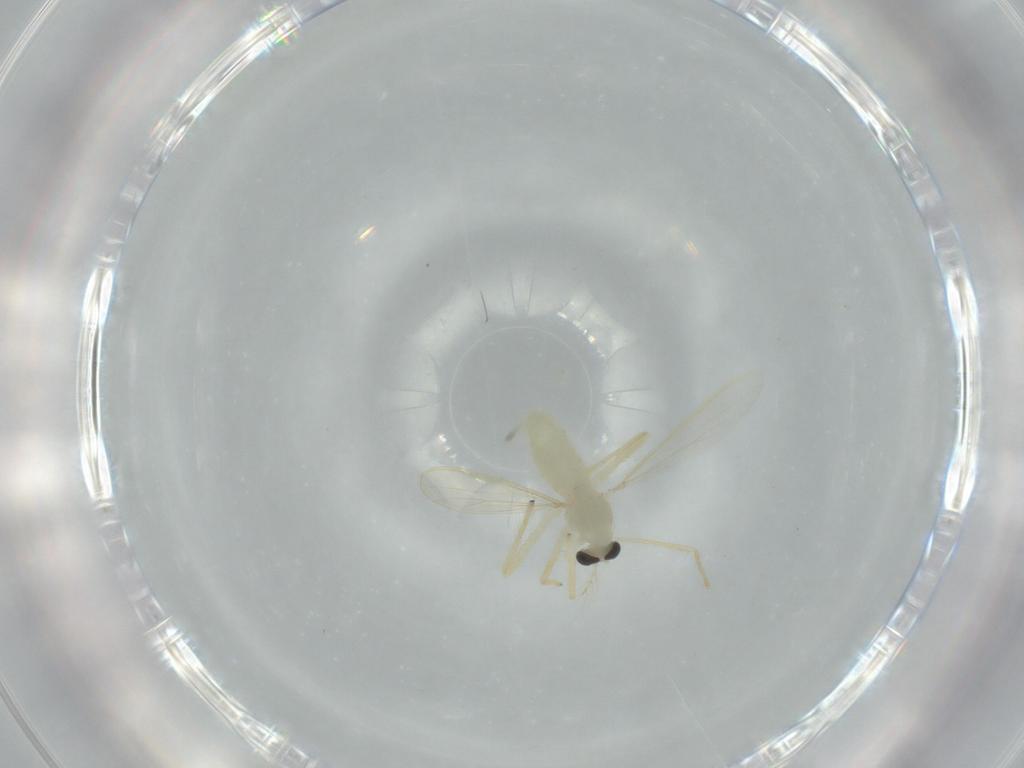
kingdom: Animalia
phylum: Arthropoda
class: Insecta
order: Diptera
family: Chironomidae
